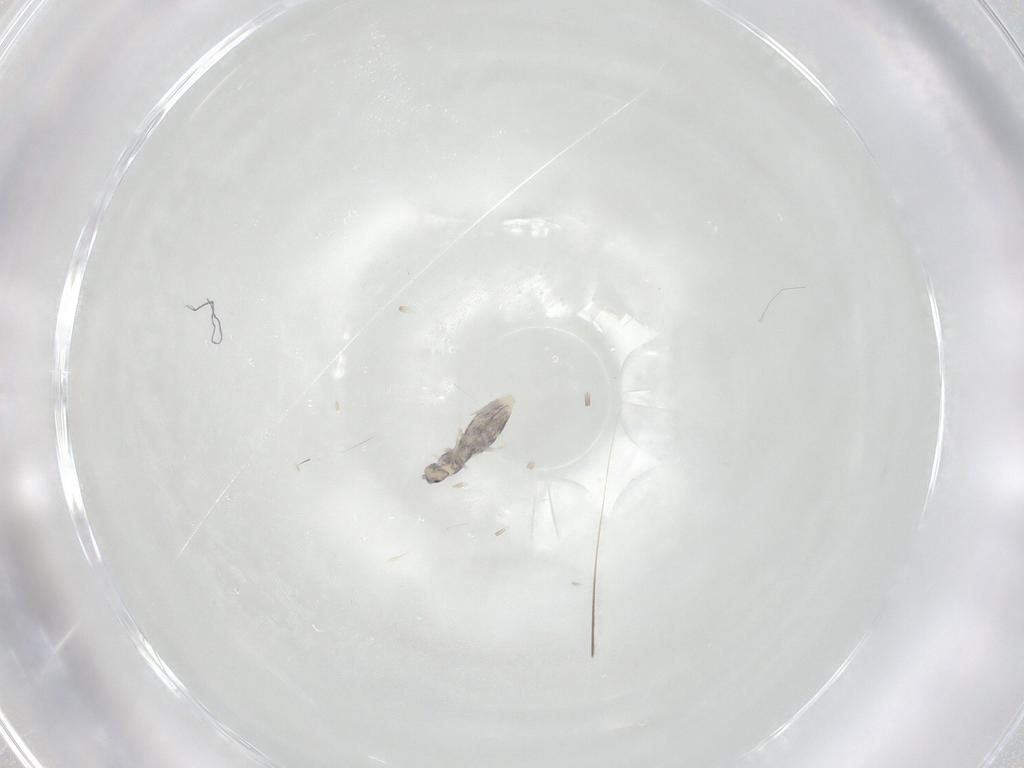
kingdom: Animalia
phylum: Arthropoda
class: Insecta
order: Diptera
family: Chloropidae
